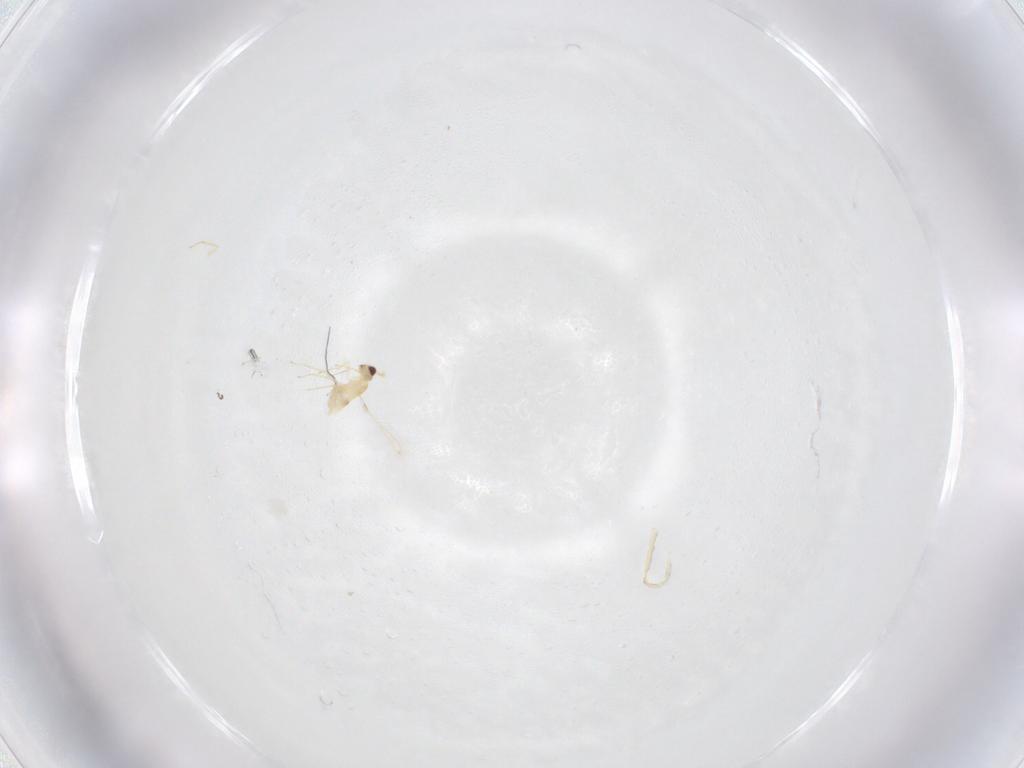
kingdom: Animalia
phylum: Arthropoda
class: Insecta
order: Hymenoptera
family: Mymaridae
